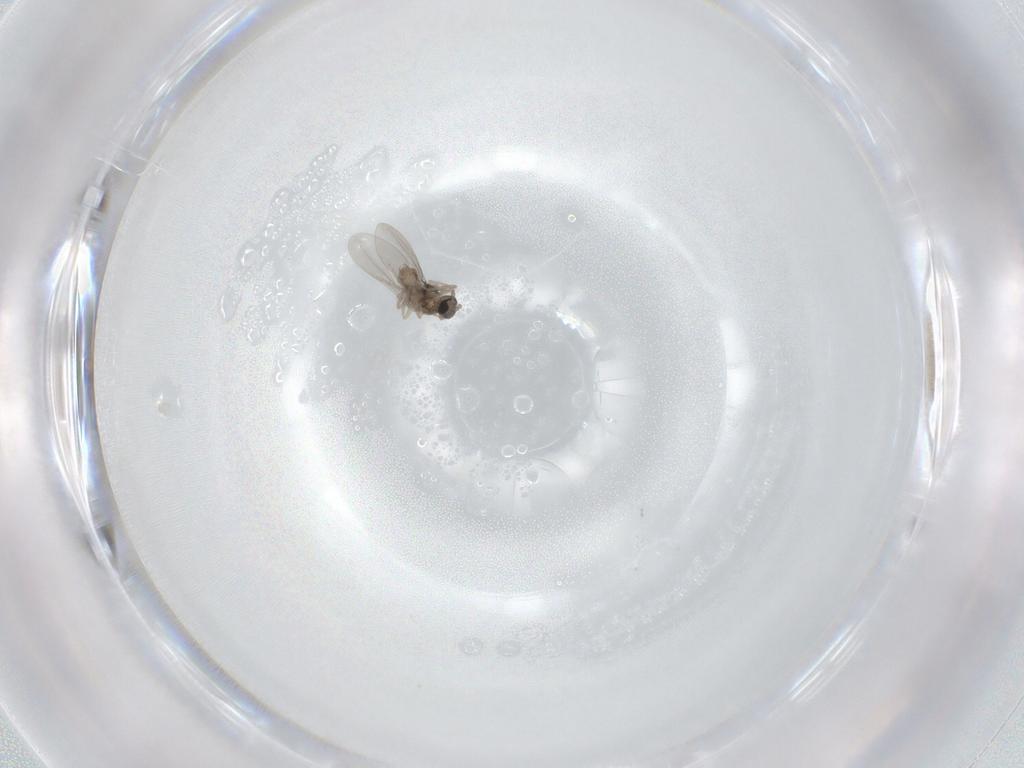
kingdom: Animalia
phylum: Arthropoda
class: Insecta
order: Diptera
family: Cecidomyiidae
